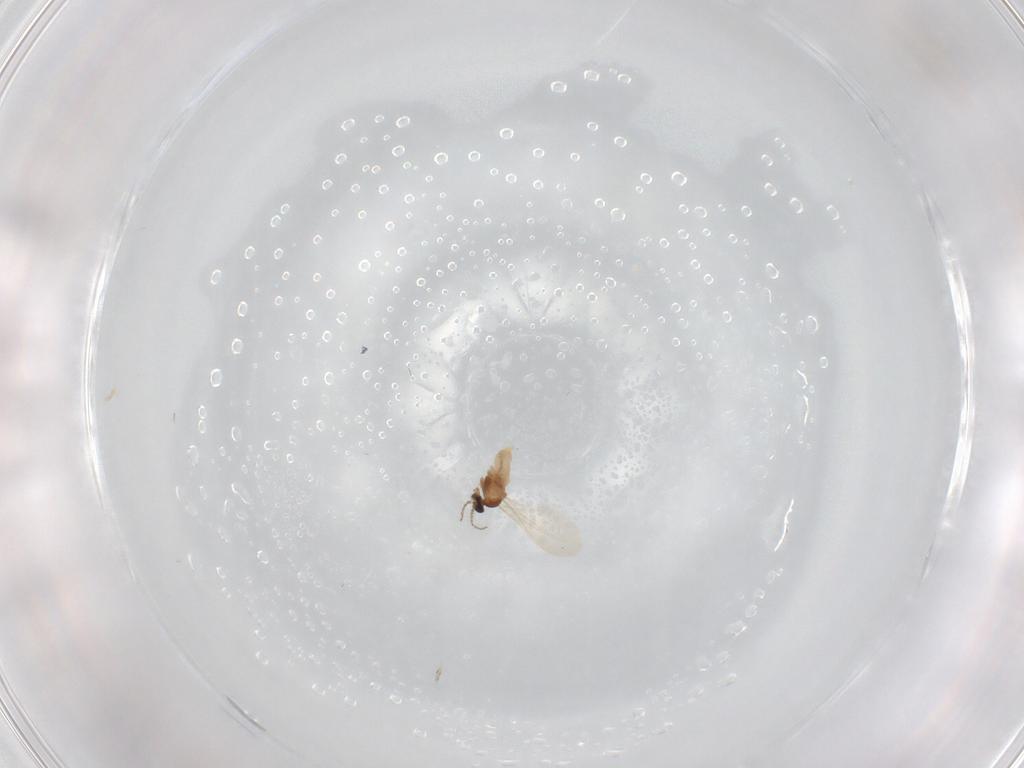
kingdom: Animalia
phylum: Arthropoda
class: Insecta
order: Diptera
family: Cecidomyiidae
